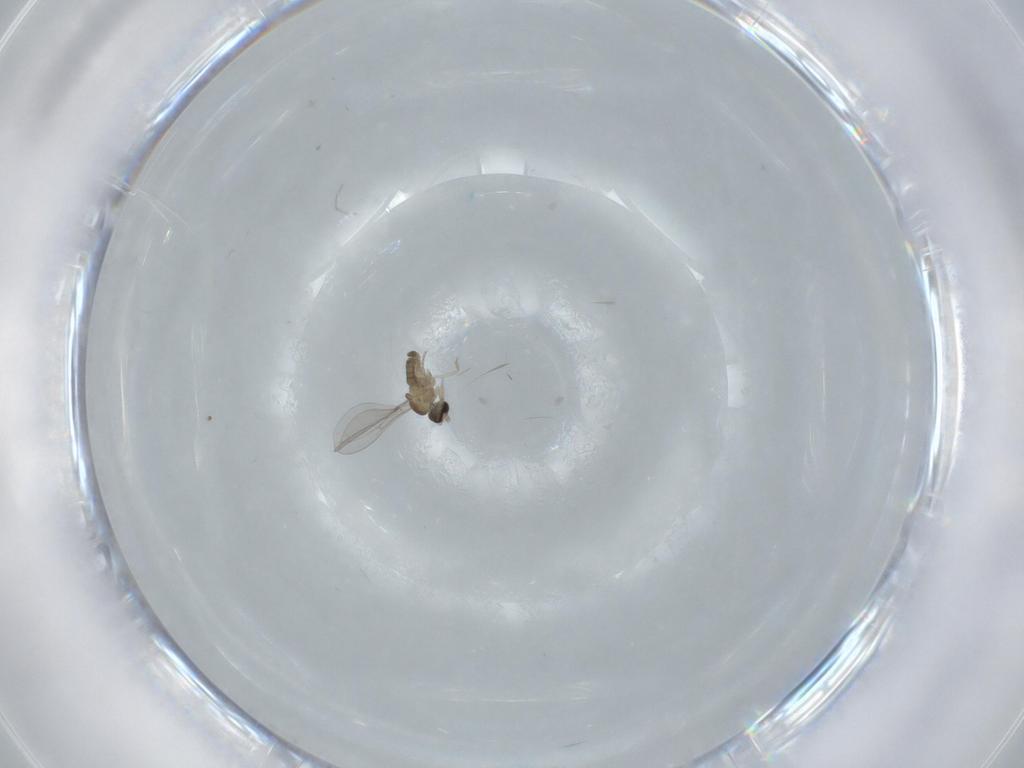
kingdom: Animalia
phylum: Arthropoda
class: Insecta
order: Diptera
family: Cecidomyiidae
